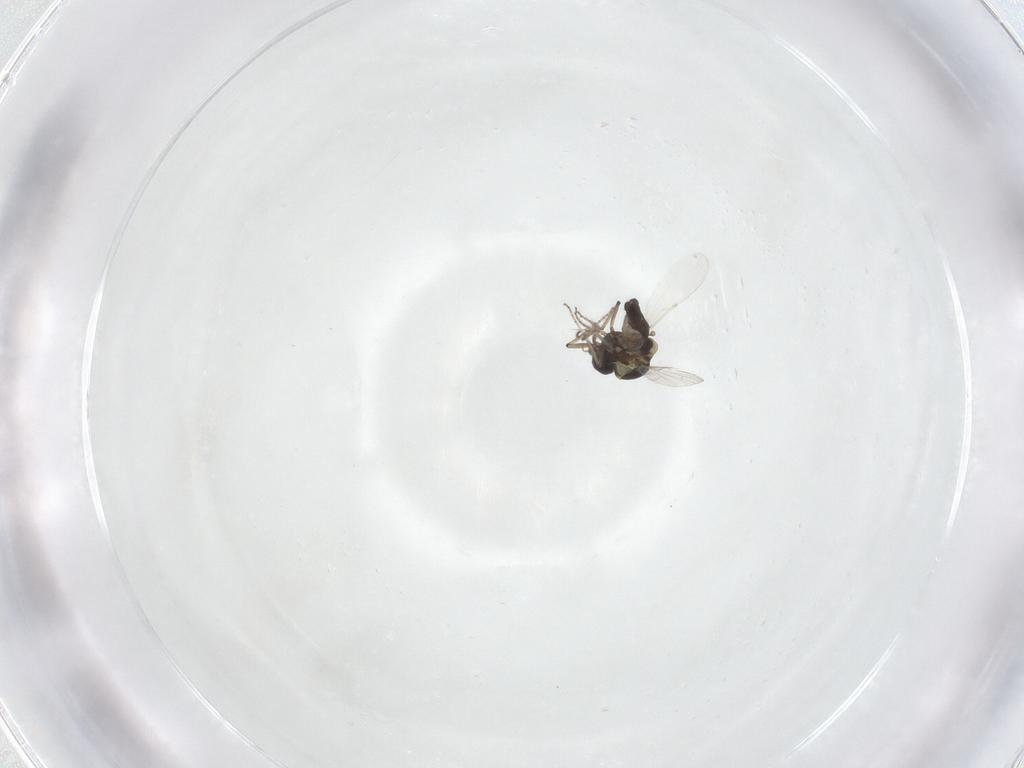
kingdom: Animalia
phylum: Arthropoda
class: Insecta
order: Diptera
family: Ceratopogonidae
